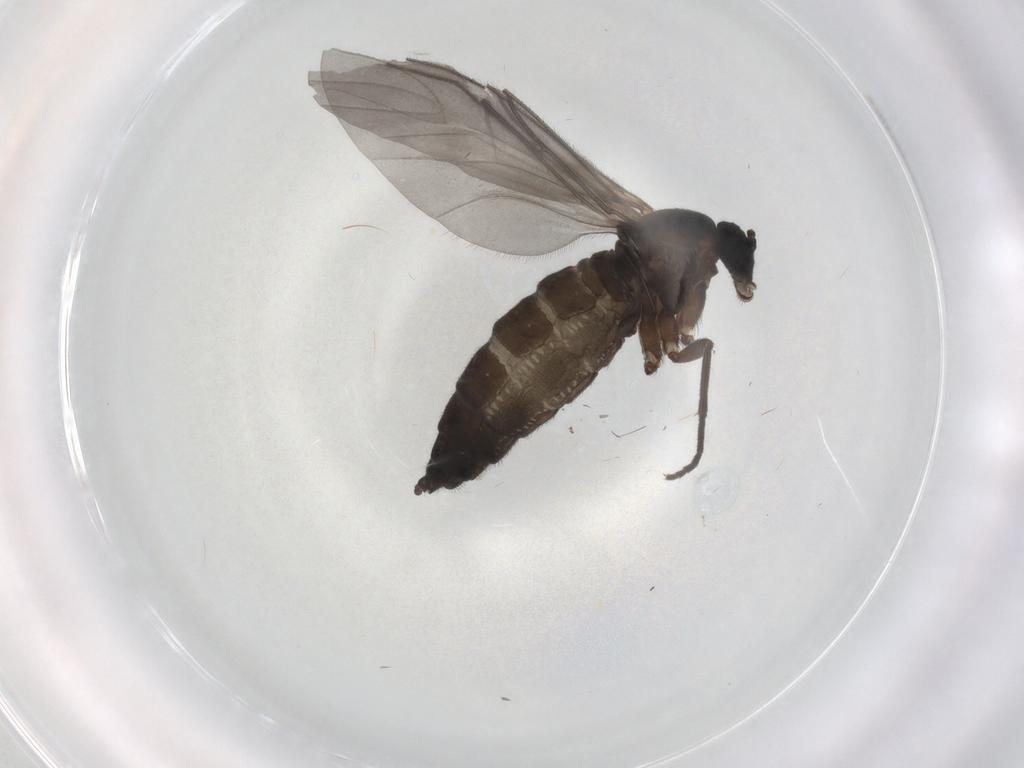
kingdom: Animalia
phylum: Arthropoda
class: Insecta
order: Diptera
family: Sciaridae
